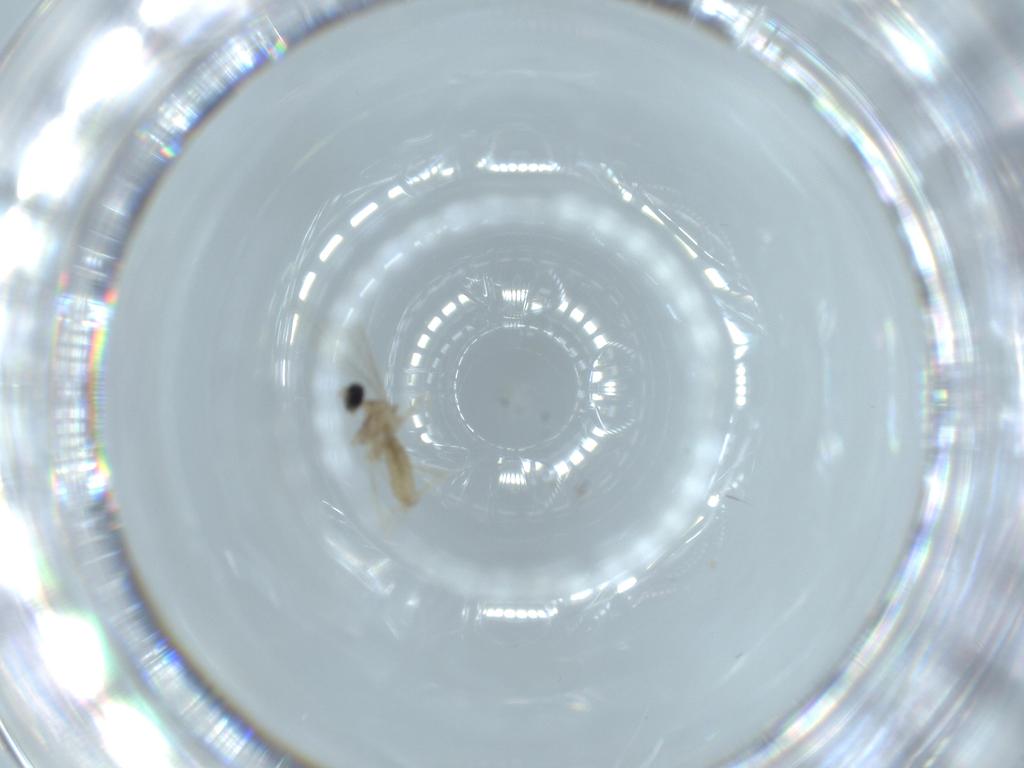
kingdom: Animalia
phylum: Arthropoda
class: Insecta
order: Diptera
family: Cecidomyiidae
